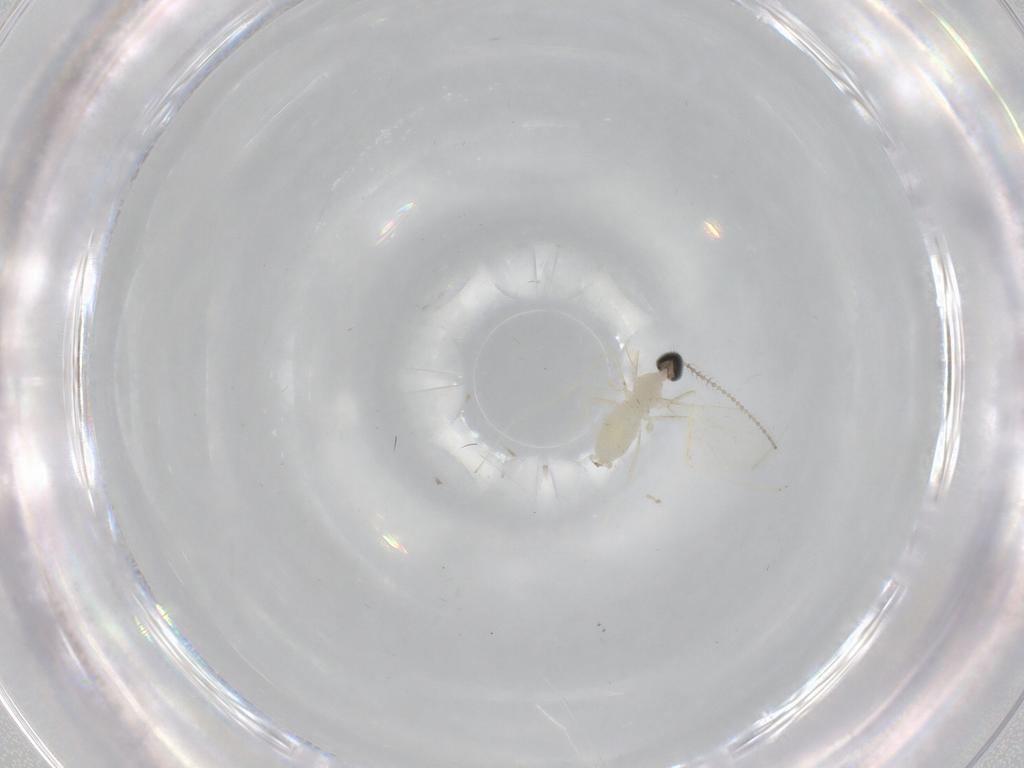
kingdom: Animalia
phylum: Arthropoda
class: Insecta
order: Diptera
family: Cecidomyiidae
